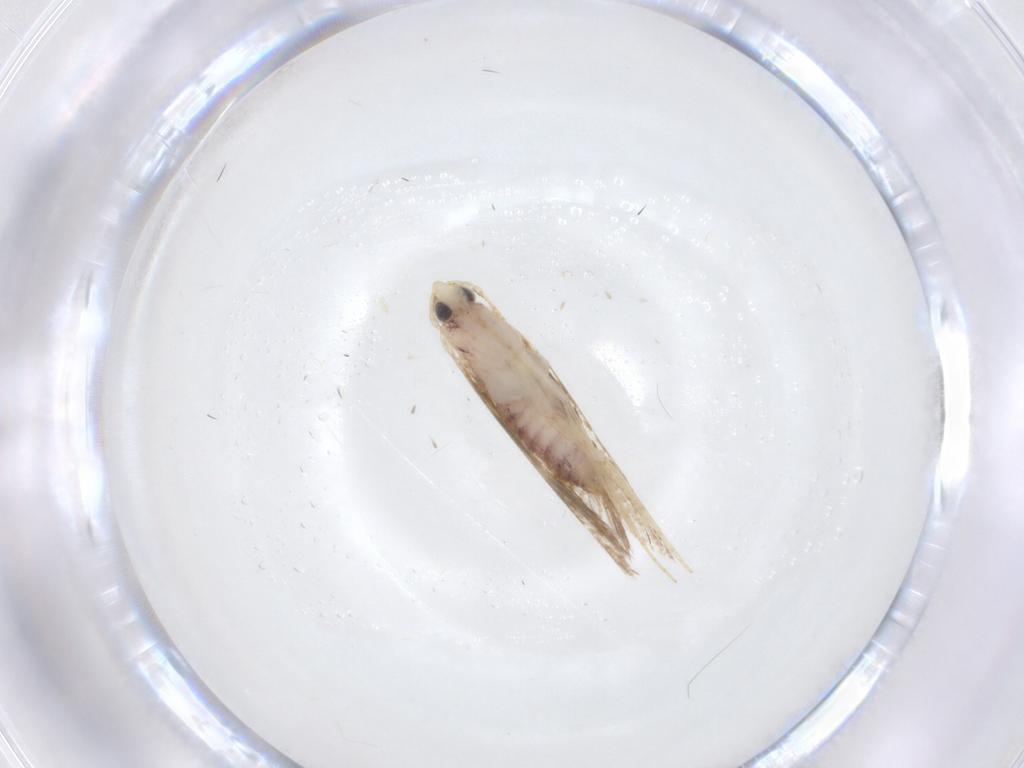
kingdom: Animalia
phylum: Arthropoda
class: Insecta
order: Lepidoptera
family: Lyonetiidae
